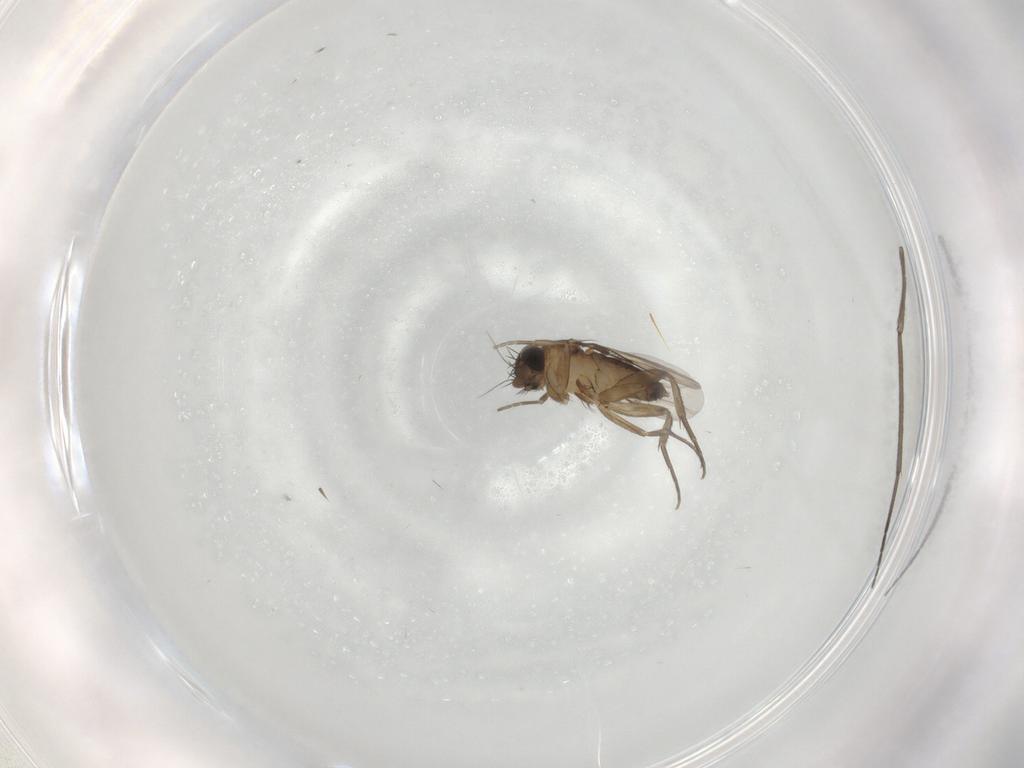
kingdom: Animalia
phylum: Arthropoda
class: Insecta
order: Diptera
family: Phoridae
